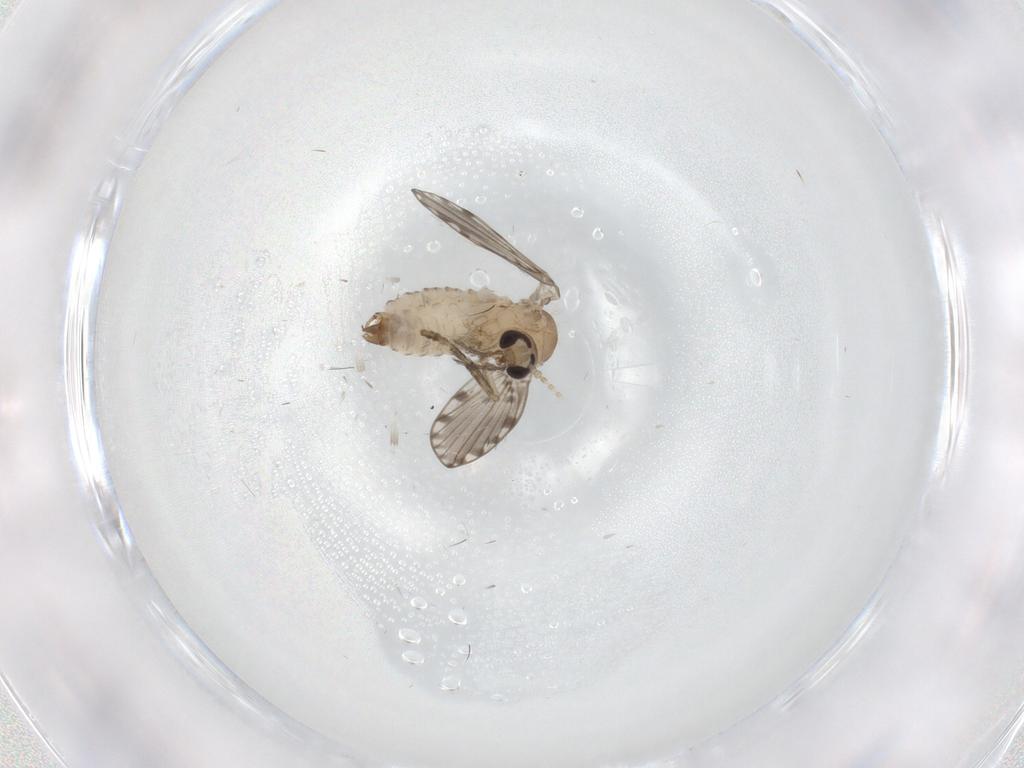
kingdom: Animalia
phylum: Arthropoda
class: Insecta
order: Diptera
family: Psychodidae
